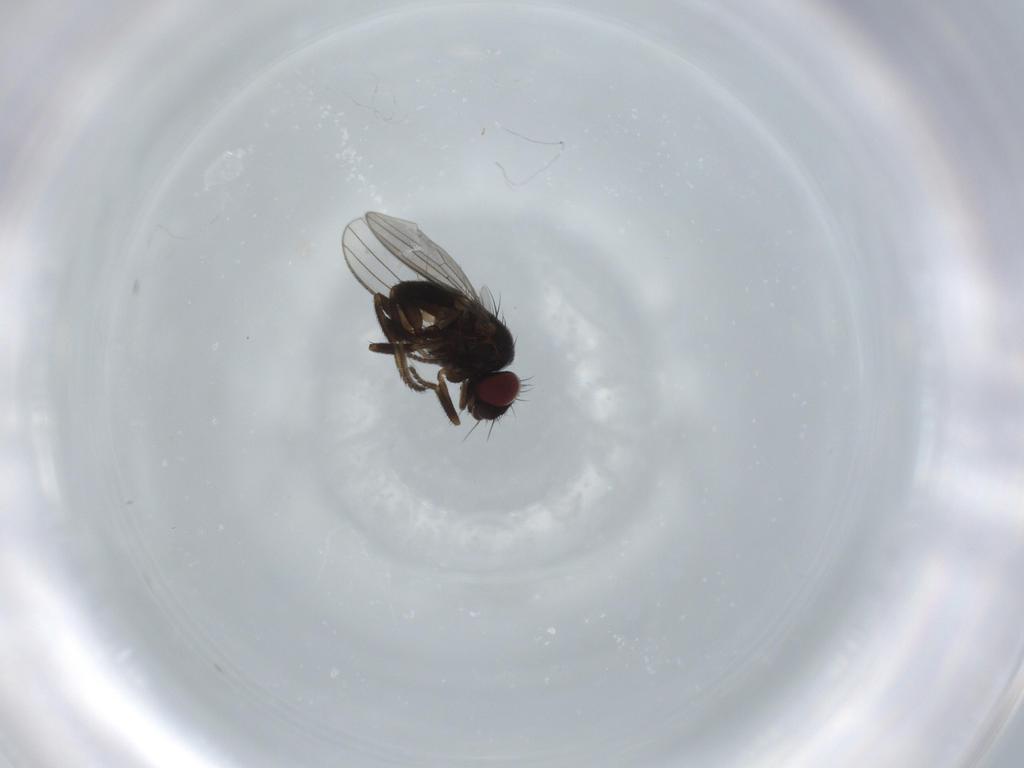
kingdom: Animalia
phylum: Arthropoda
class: Insecta
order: Diptera
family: Milichiidae
